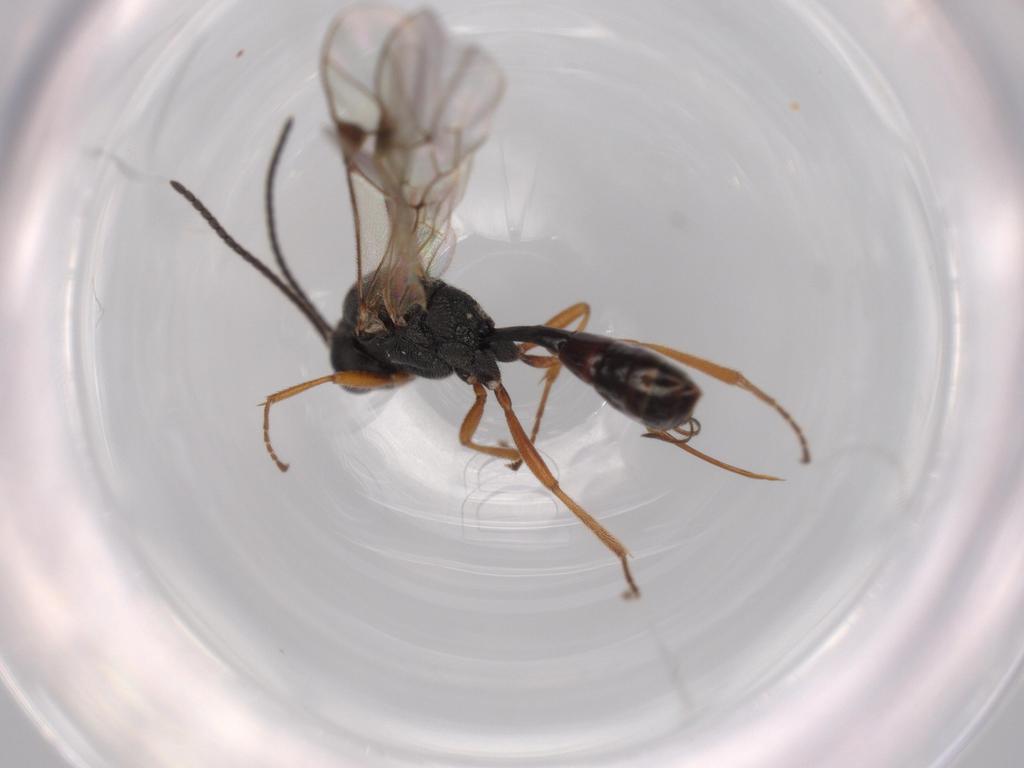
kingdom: Animalia
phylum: Arthropoda
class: Insecta
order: Hymenoptera
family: Ichneumonidae
